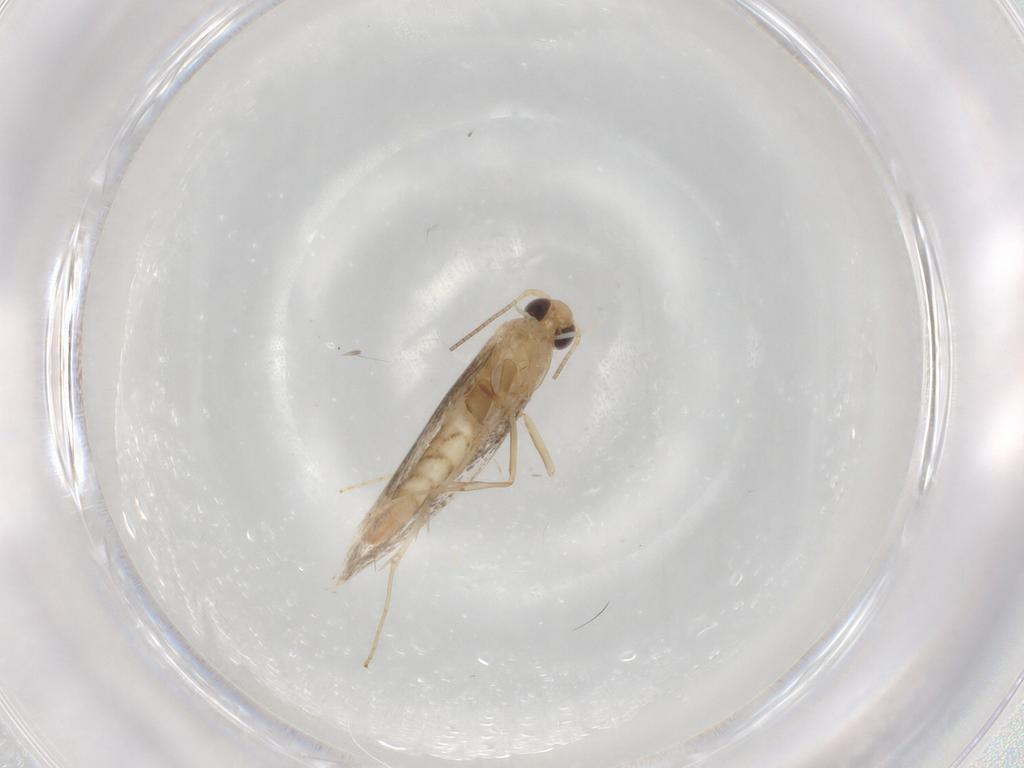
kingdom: Animalia
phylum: Arthropoda
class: Insecta
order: Lepidoptera
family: Gracillariidae
